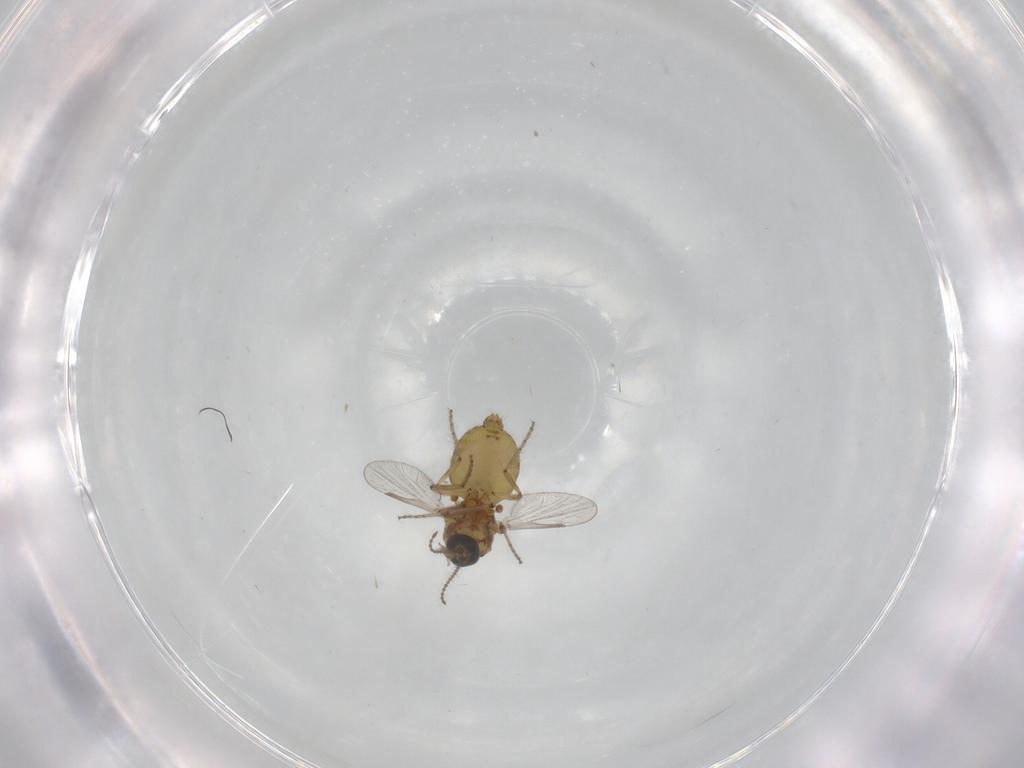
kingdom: Animalia
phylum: Arthropoda
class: Insecta
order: Diptera
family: Ceratopogonidae
